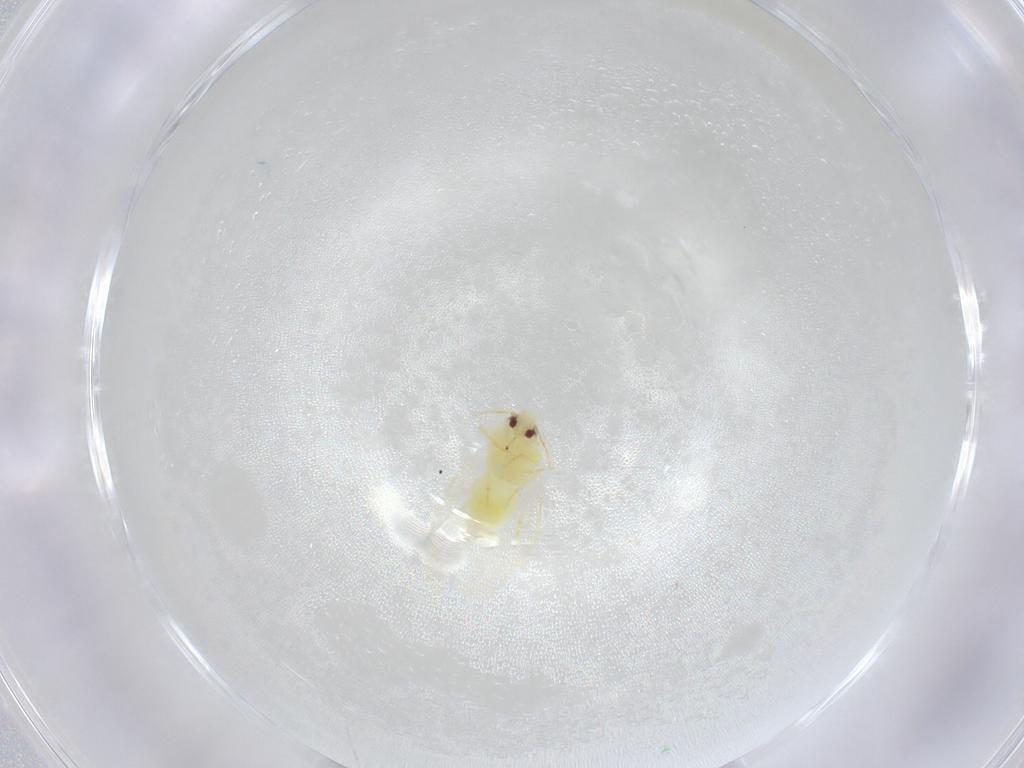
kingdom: Animalia
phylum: Arthropoda
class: Insecta
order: Hemiptera
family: Aleyrodidae
